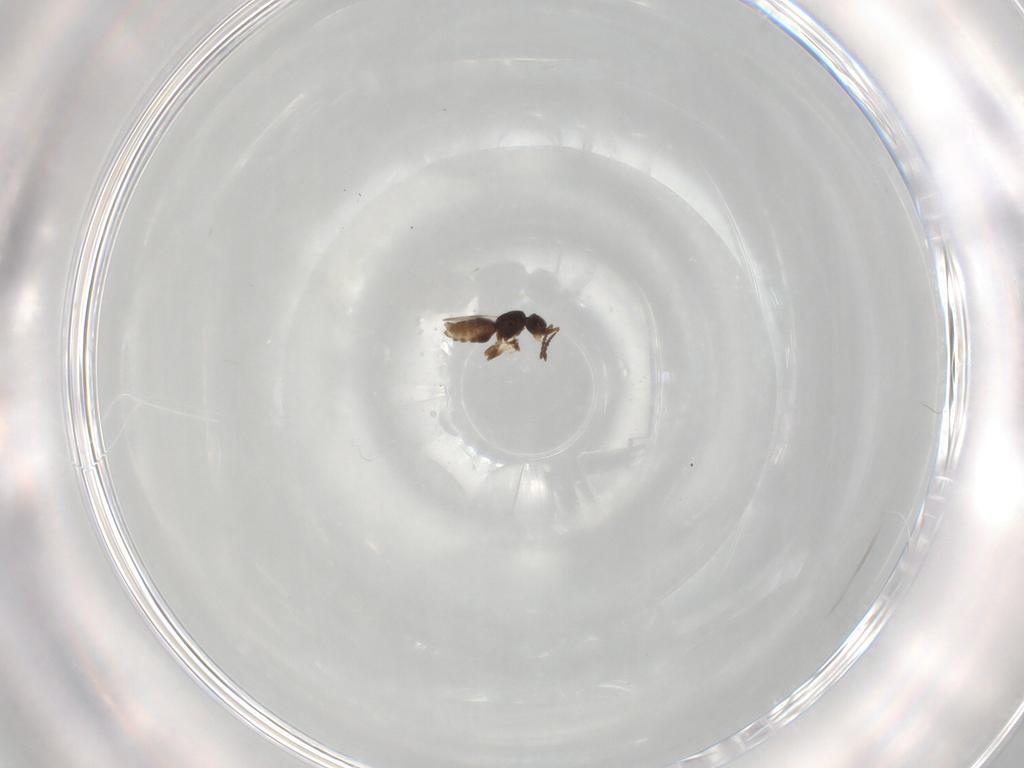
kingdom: Animalia
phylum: Arthropoda
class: Insecta
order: Hymenoptera
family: Ceraphronidae
